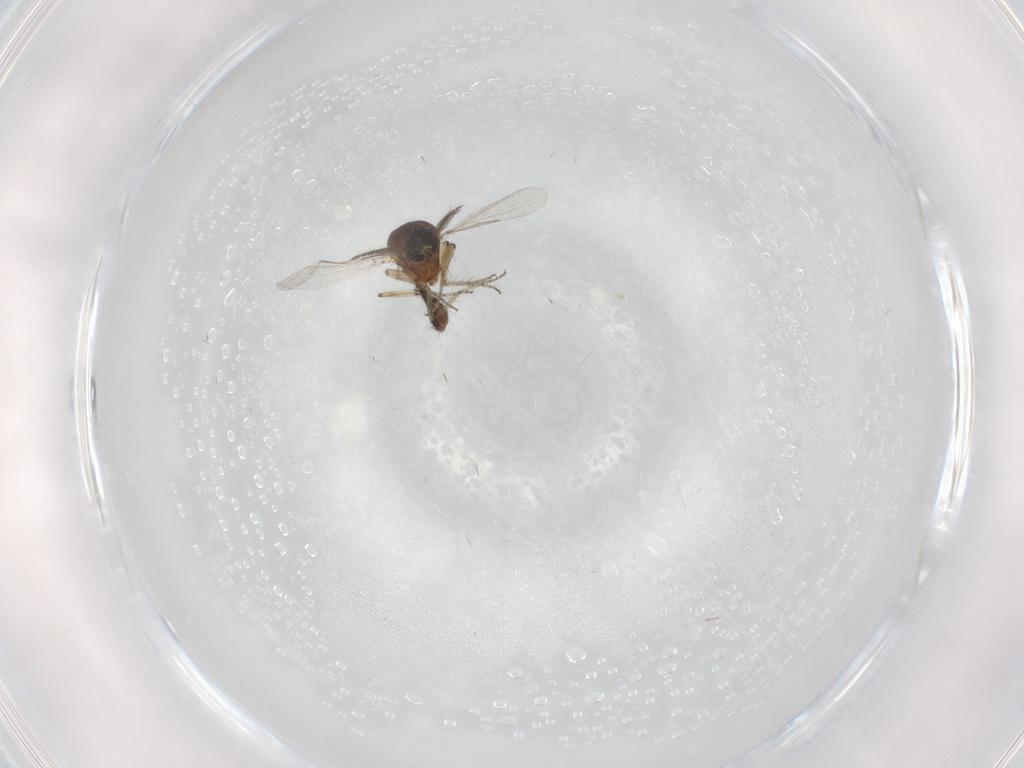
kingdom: Animalia
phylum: Arthropoda
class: Insecta
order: Diptera
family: Ceratopogonidae
